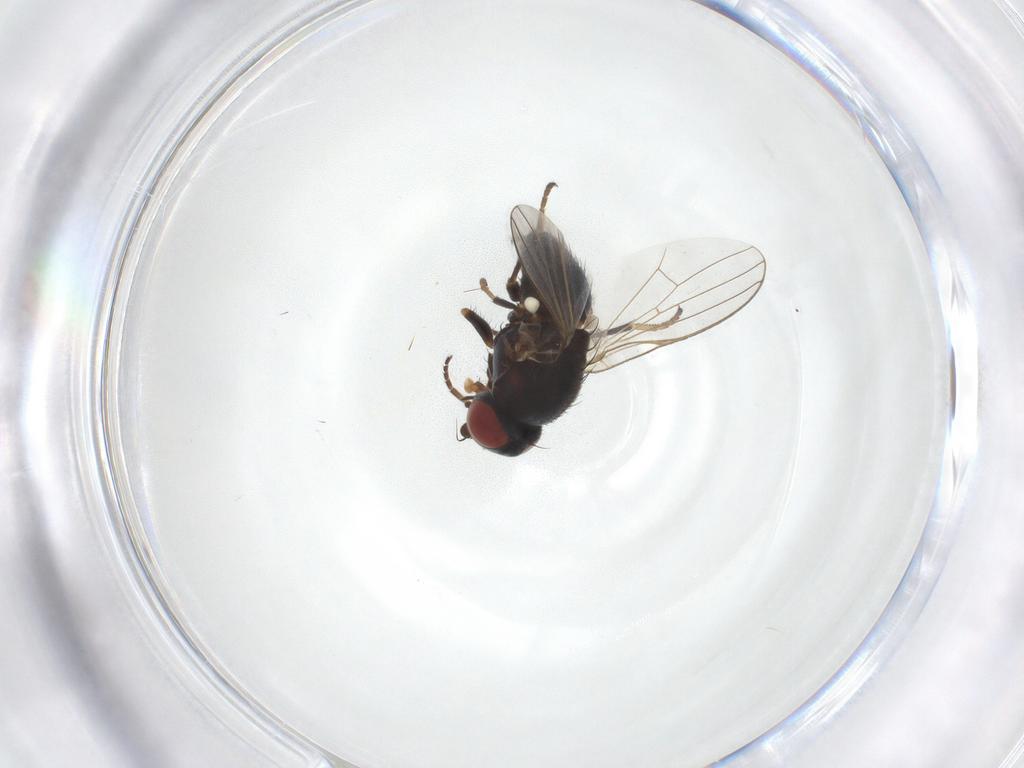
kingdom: Animalia
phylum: Arthropoda
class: Insecta
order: Diptera
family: Chamaemyiidae
